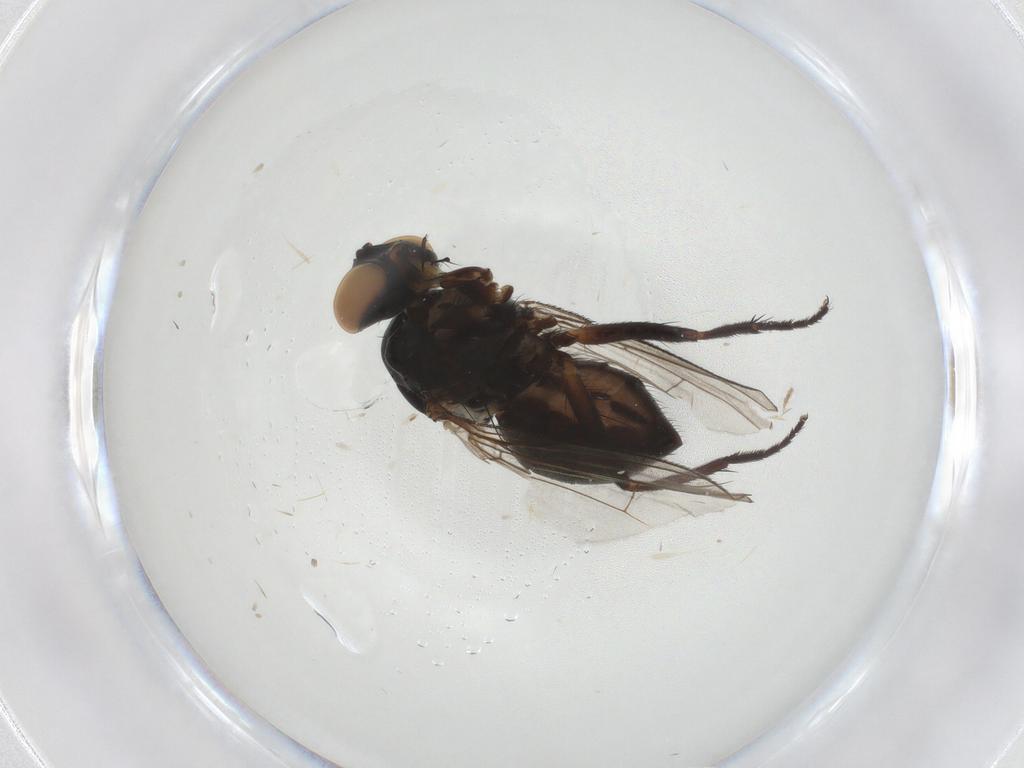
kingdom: Animalia
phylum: Arthropoda
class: Insecta
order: Diptera
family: Muscidae
